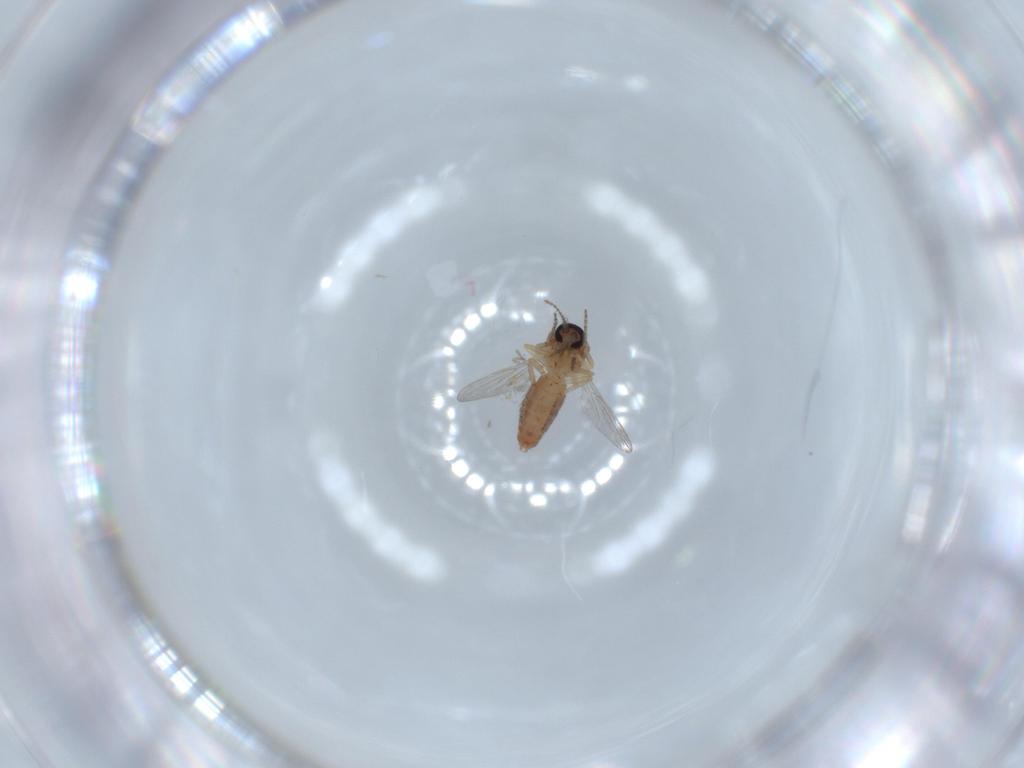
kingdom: Animalia
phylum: Arthropoda
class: Insecta
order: Diptera
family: Ceratopogonidae
